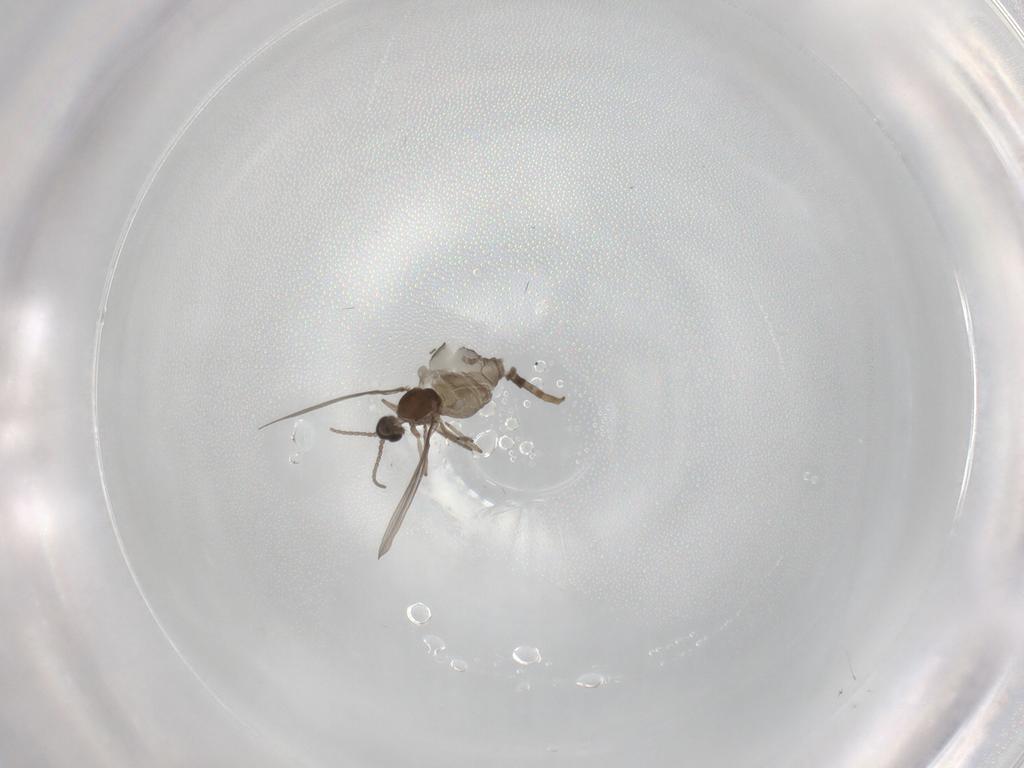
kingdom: Animalia
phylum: Arthropoda
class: Insecta
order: Diptera
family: Cecidomyiidae
